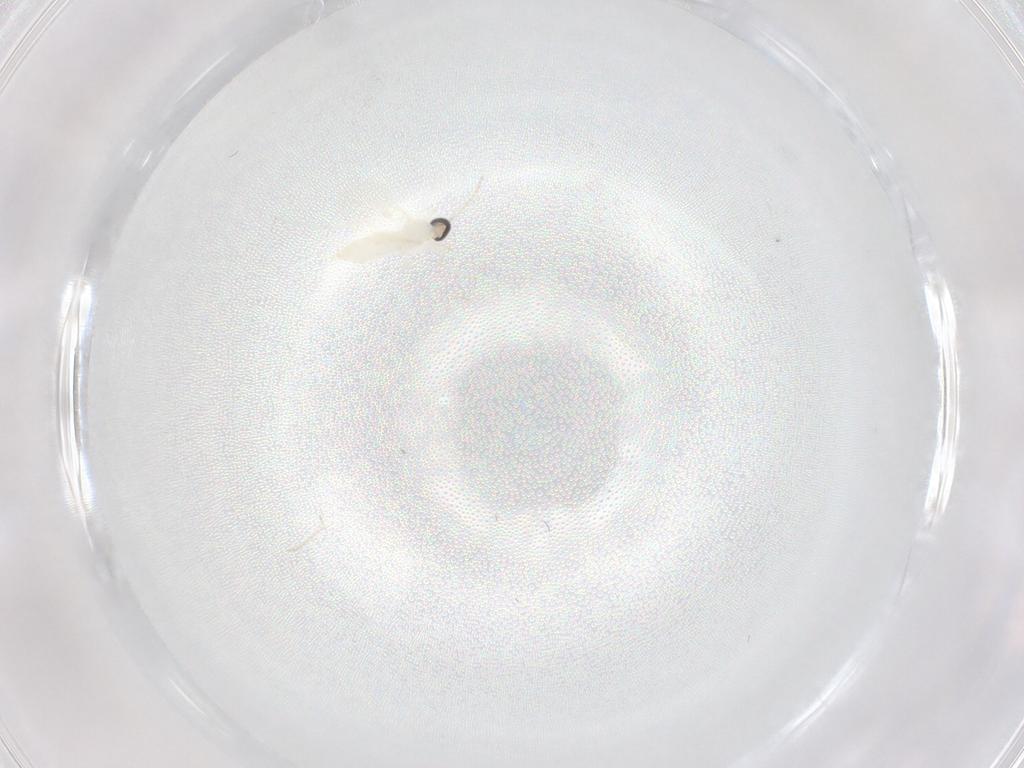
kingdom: Animalia
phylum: Arthropoda
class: Insecta
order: Diptera
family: Cecidomyiidae
